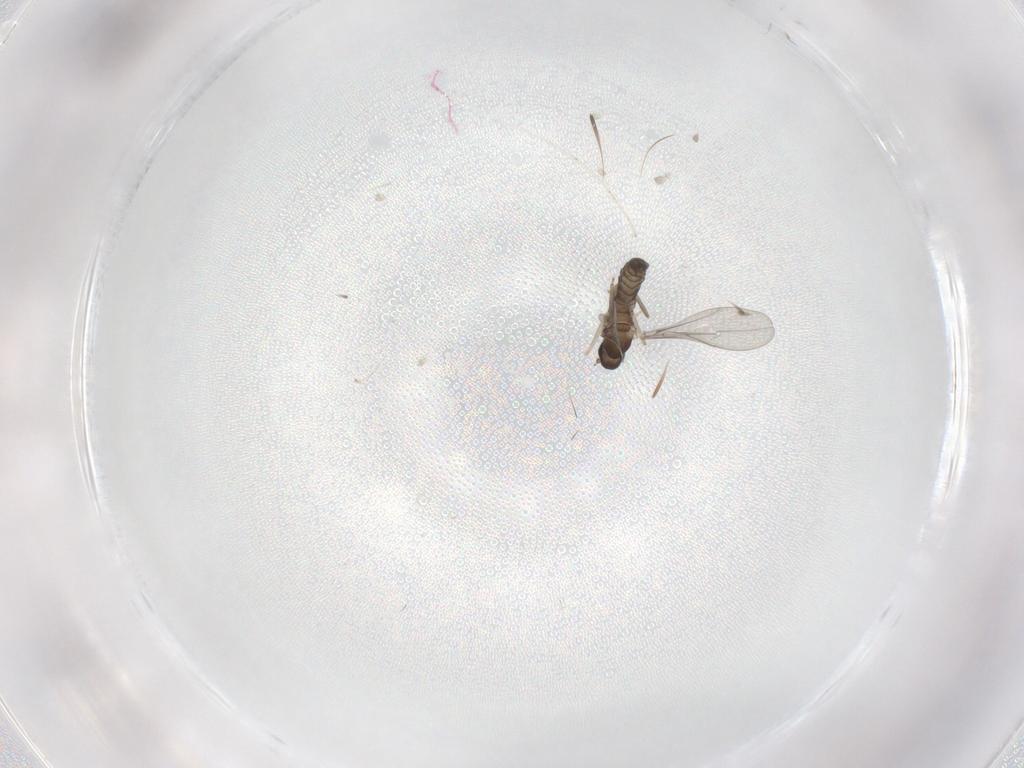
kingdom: Animalia
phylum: Arthropoda
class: Insecta
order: Diptera
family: Cecidomyiidae
